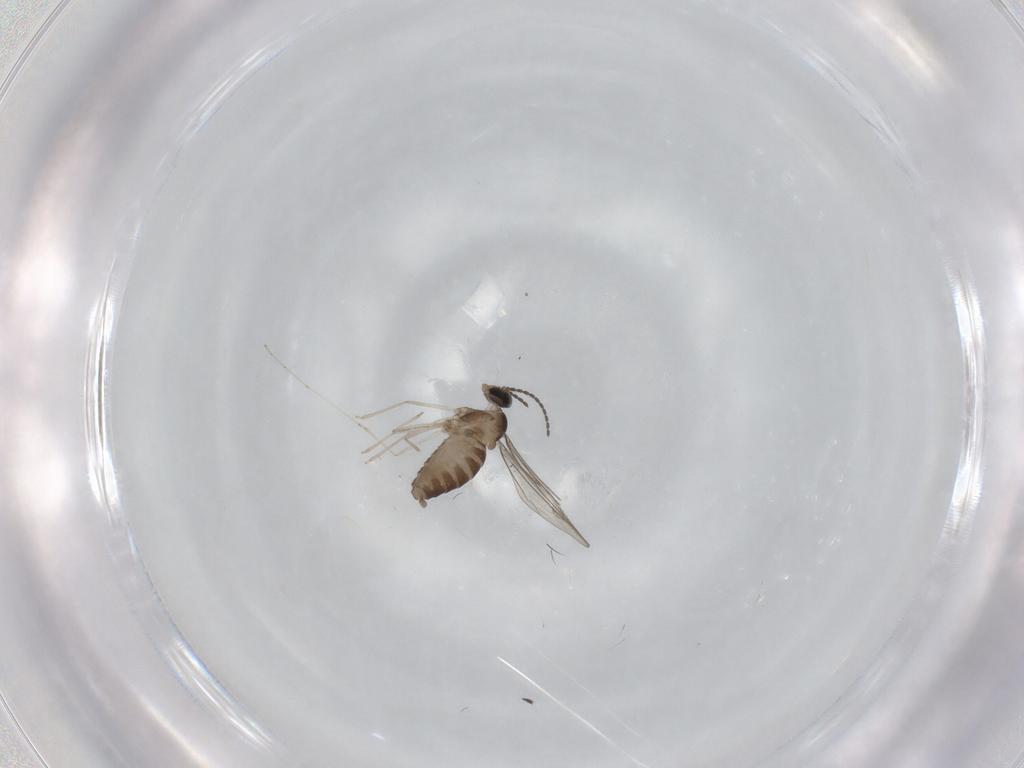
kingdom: Animalia
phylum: Arthropoda
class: Insecta
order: Diptera
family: Cecidomyiidae
